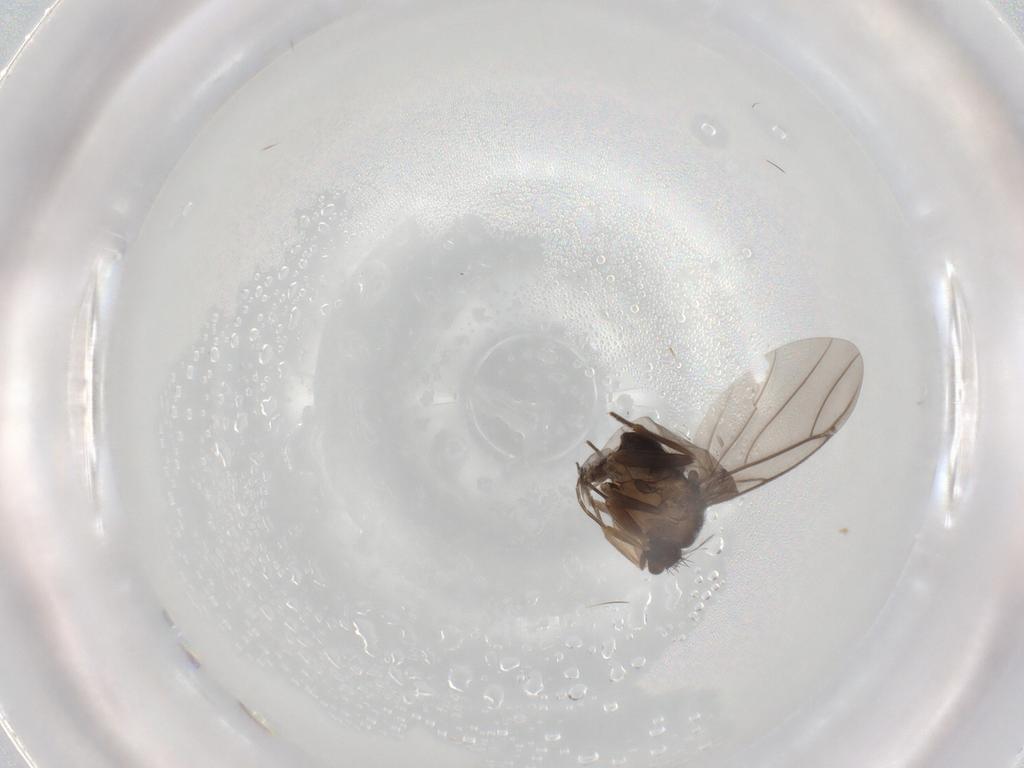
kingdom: Animalia
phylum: Arthropoda
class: Insecta
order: Diptera
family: Phoridae
